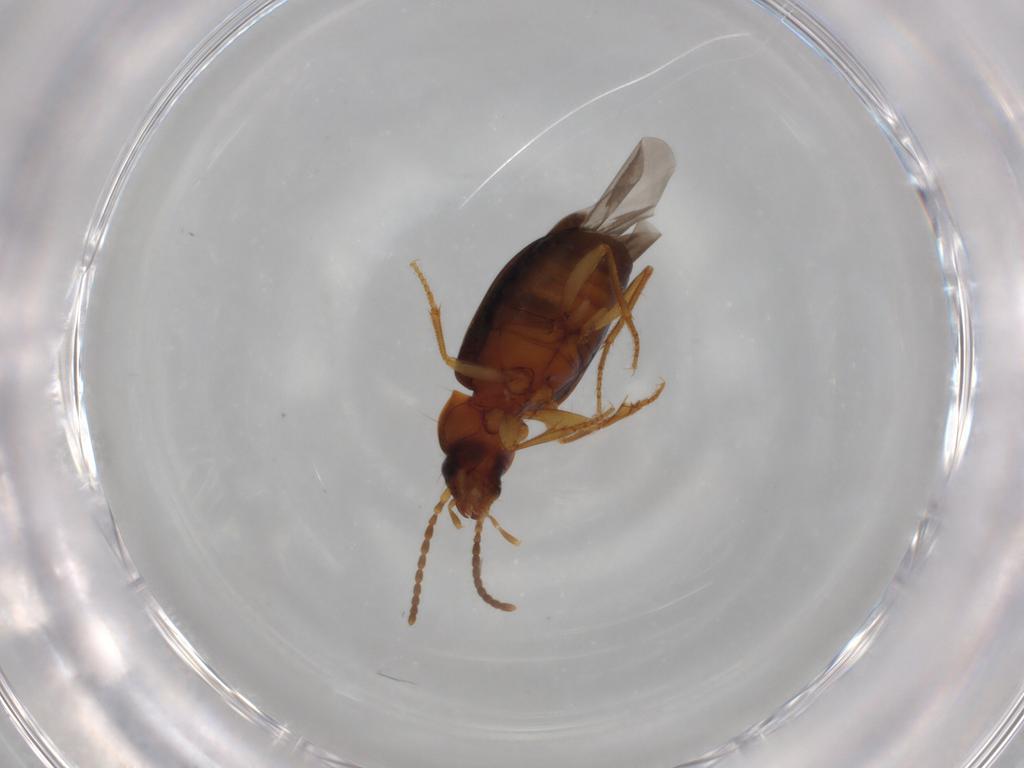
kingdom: Animalia
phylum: Arthropoda
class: Insecta
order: Coleoptera
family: Carabidae
